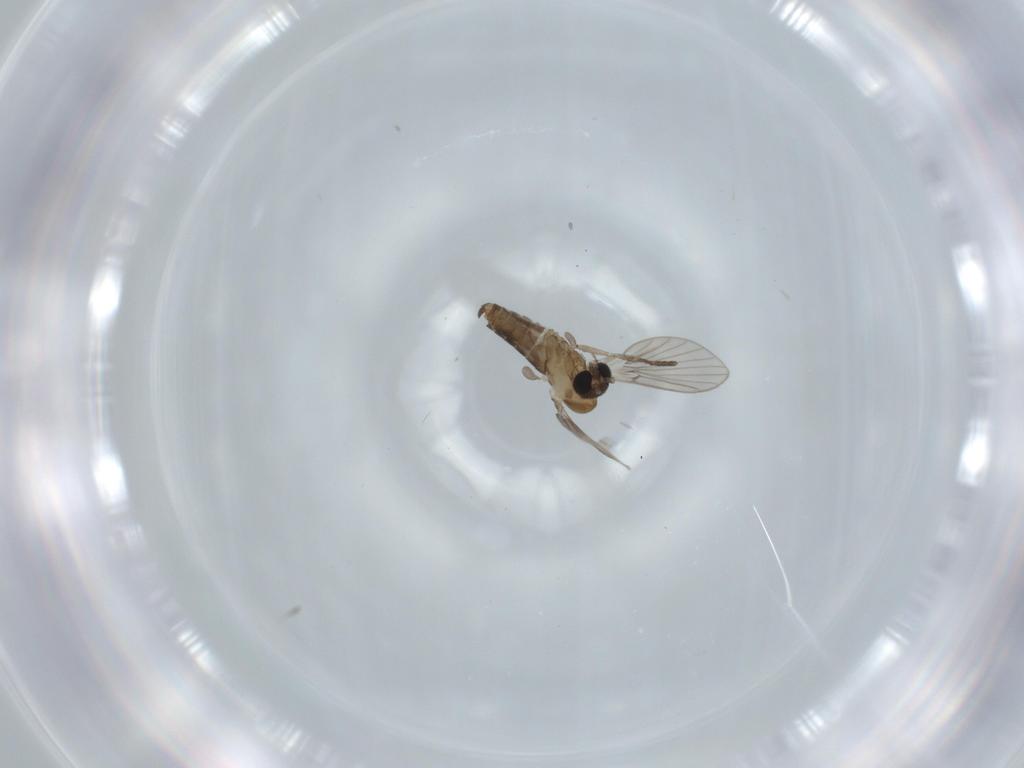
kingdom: Animalia
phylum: Arthropoda
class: Insecta
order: Diptera
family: Psychodidae
